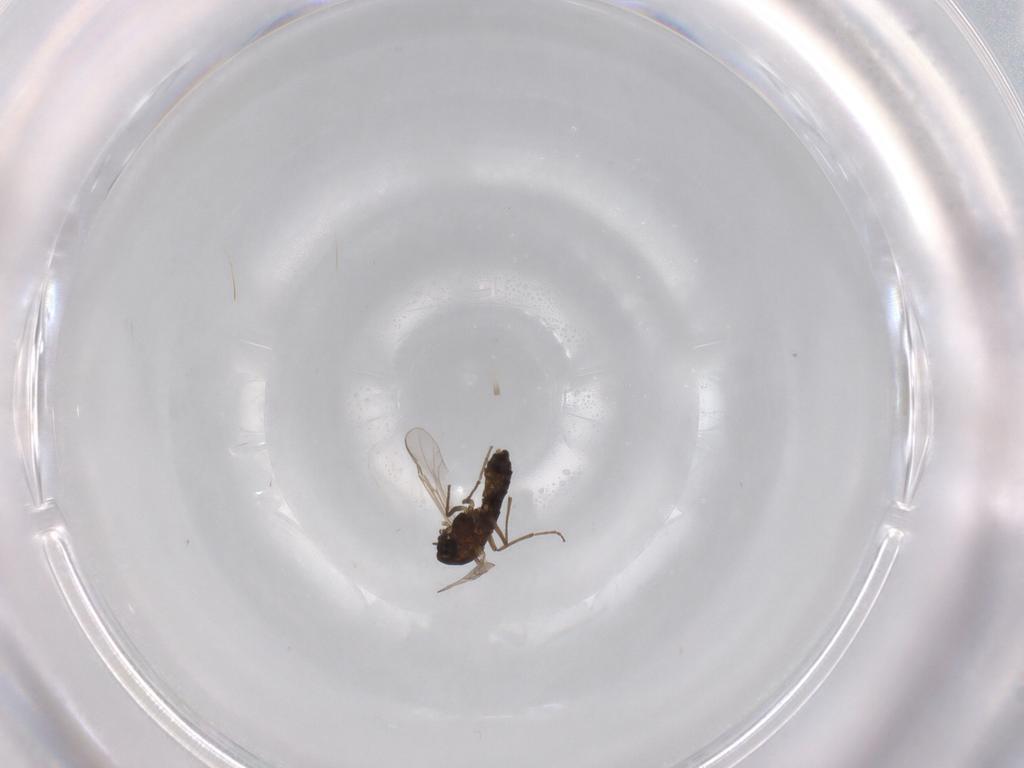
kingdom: Animalia
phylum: Arthropoda
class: Insecta
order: Diptera
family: Chironomidae
